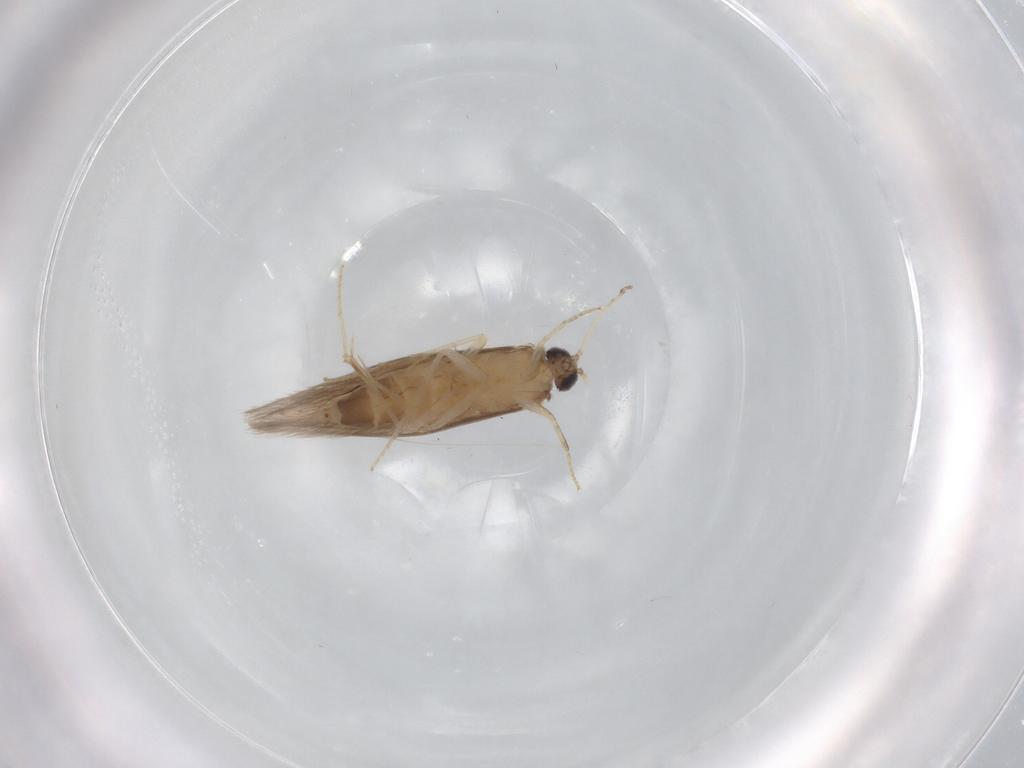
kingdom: Animalia
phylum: Arthropoda
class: Insecta
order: Trichoptera
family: Hydroptilidae
